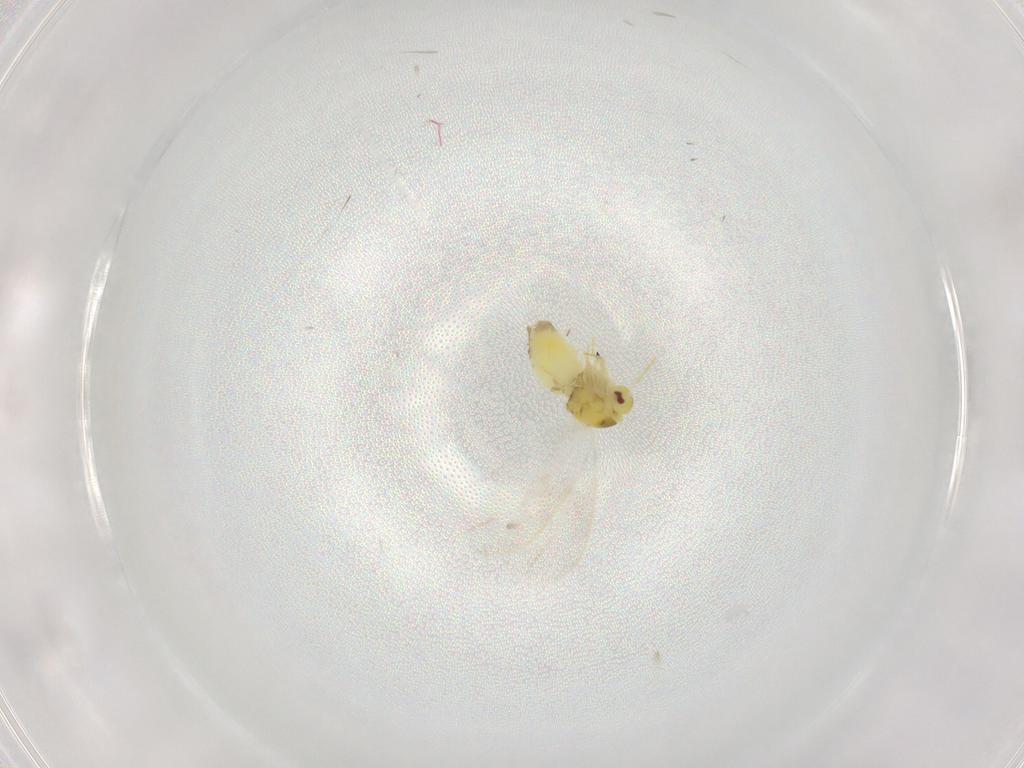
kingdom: Animalia
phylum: Arthropoda
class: Insecta
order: Hemiptera
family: Aleyrodidae
